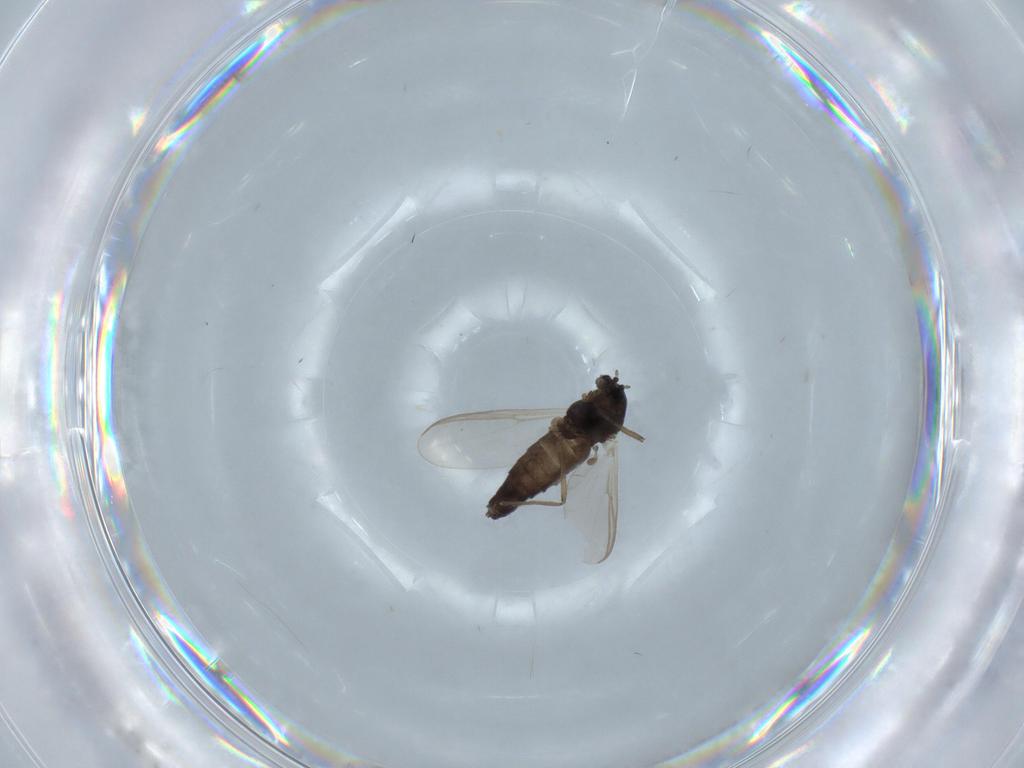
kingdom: Animalia
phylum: Arthropoda
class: Insecta
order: Diptera
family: Chironomidae
